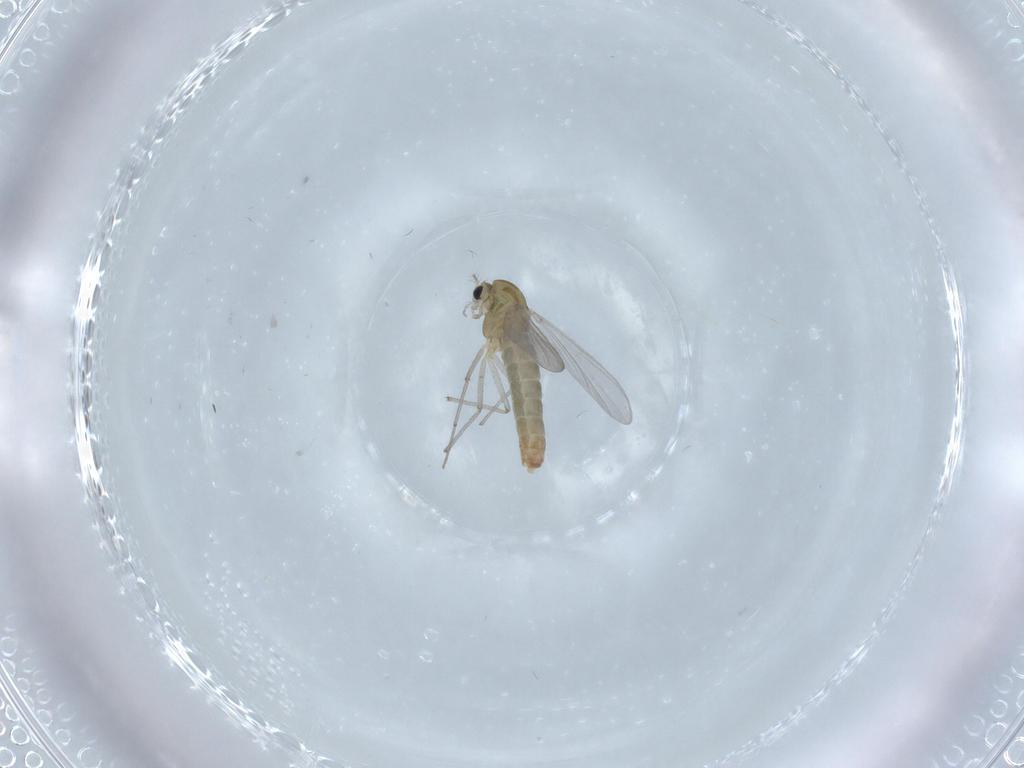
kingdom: Animalia
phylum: Arthropoda
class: Insecta
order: Diptera
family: Chironomidae
